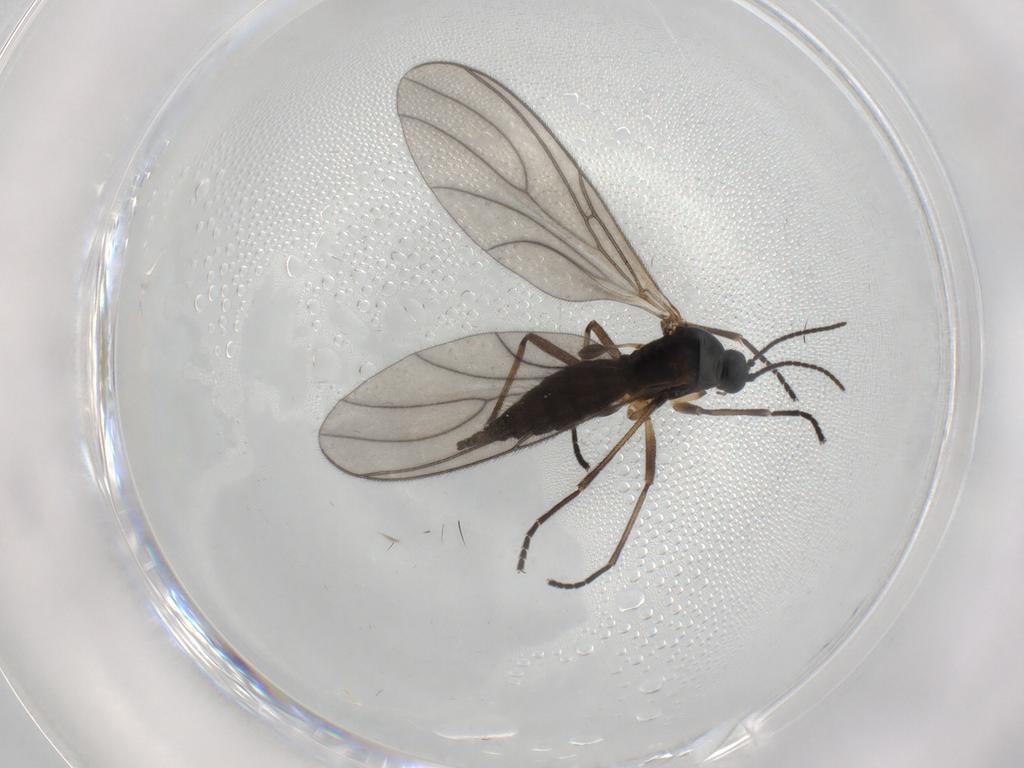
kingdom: Animalia
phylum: Arthropoda
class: Insecta
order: Diptera
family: Sciaridae
